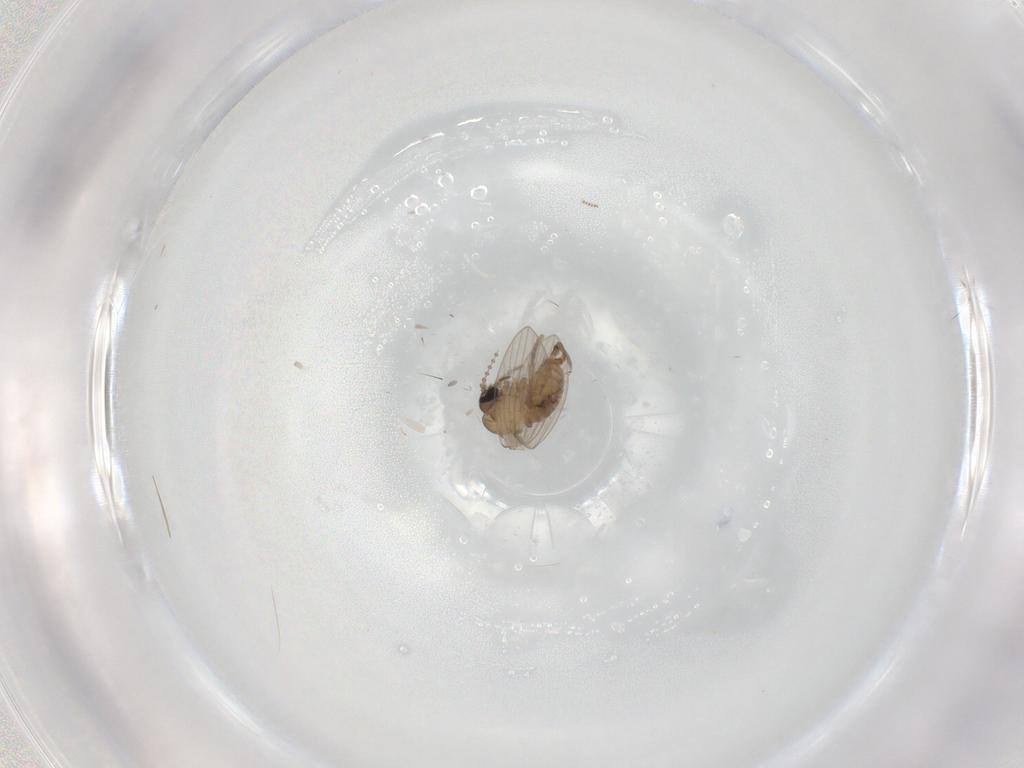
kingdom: Animalia
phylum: Arthropoda
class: Insecta
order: Diptera
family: Psychodidae
